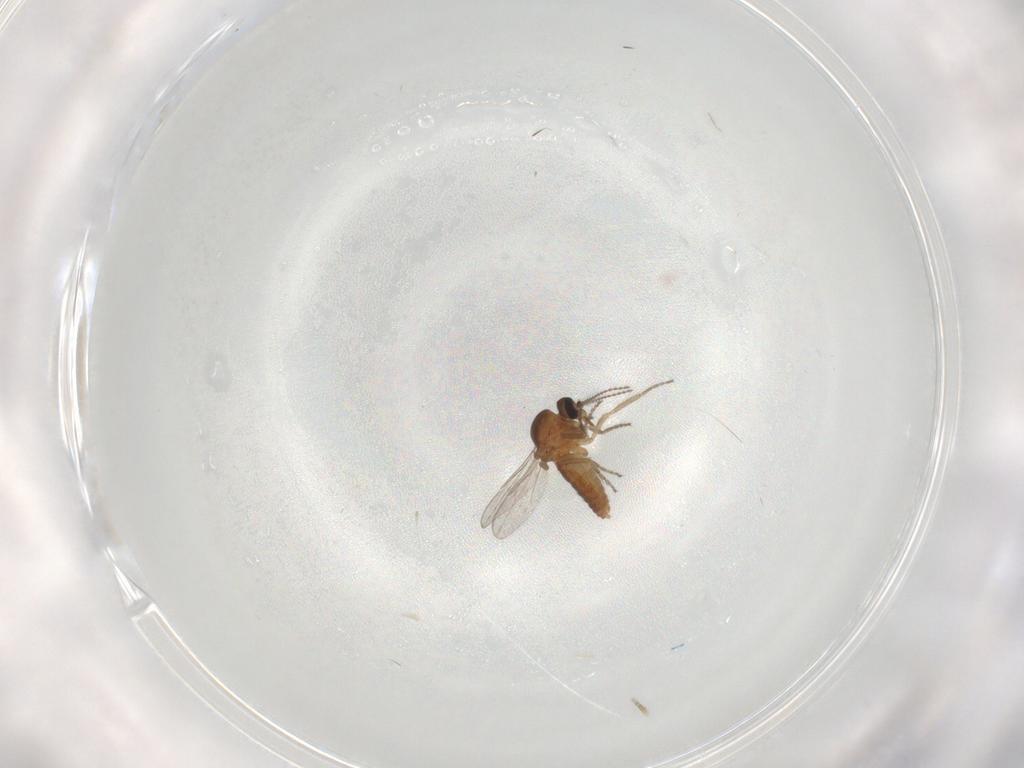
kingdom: Animalia
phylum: Arthropoda
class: Insecta
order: Diptera
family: Ceratopogonidae
